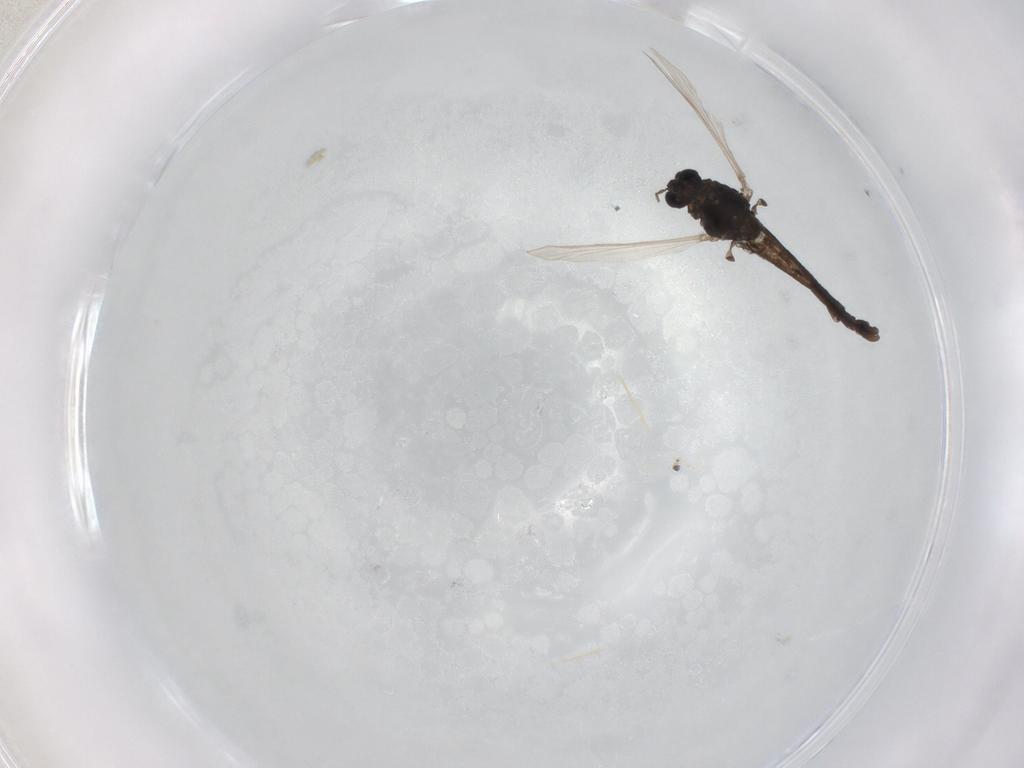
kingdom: Animalia
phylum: Arthropoda
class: Insecta
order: Diptera
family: Chironomidae
